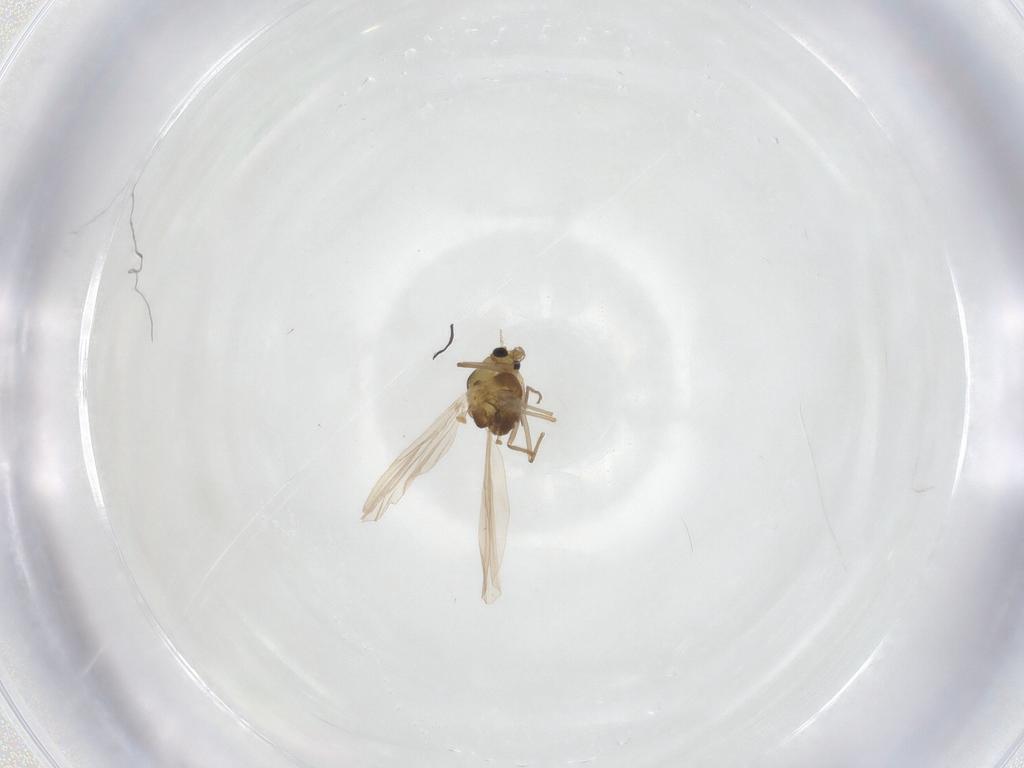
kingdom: Animalia
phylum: Arthropoda
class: Insecta
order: Diptera
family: Chironomidae
